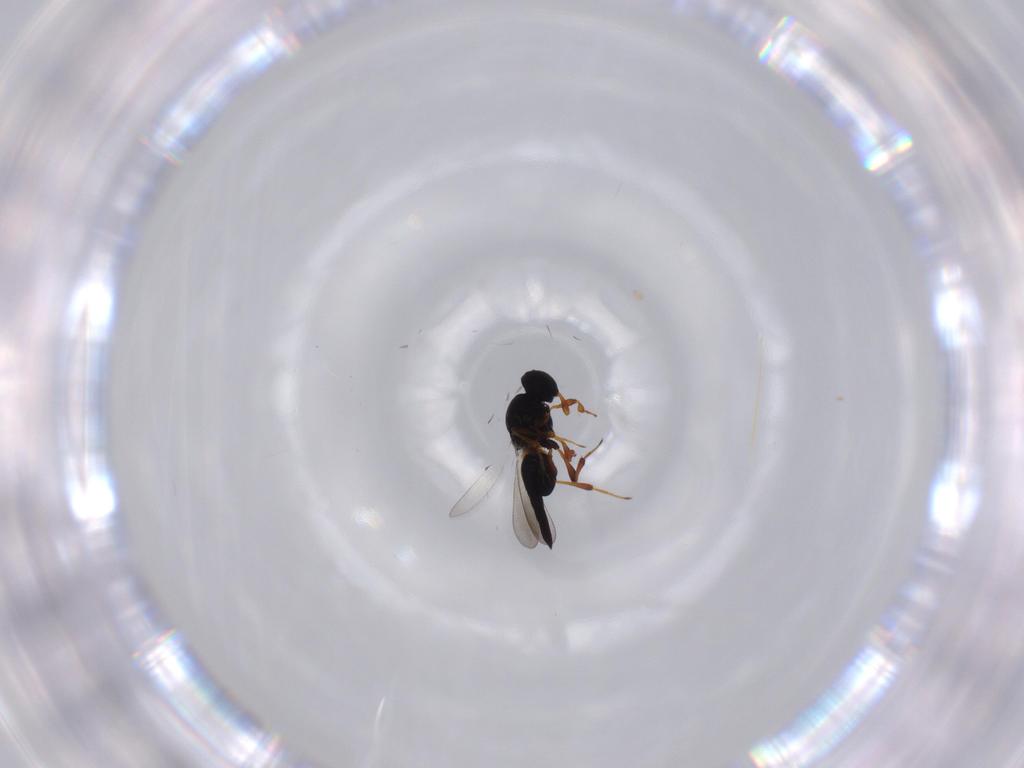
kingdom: Animalia
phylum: Arthropoda
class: Insecta
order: Hymenoptera
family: Platygastridae
